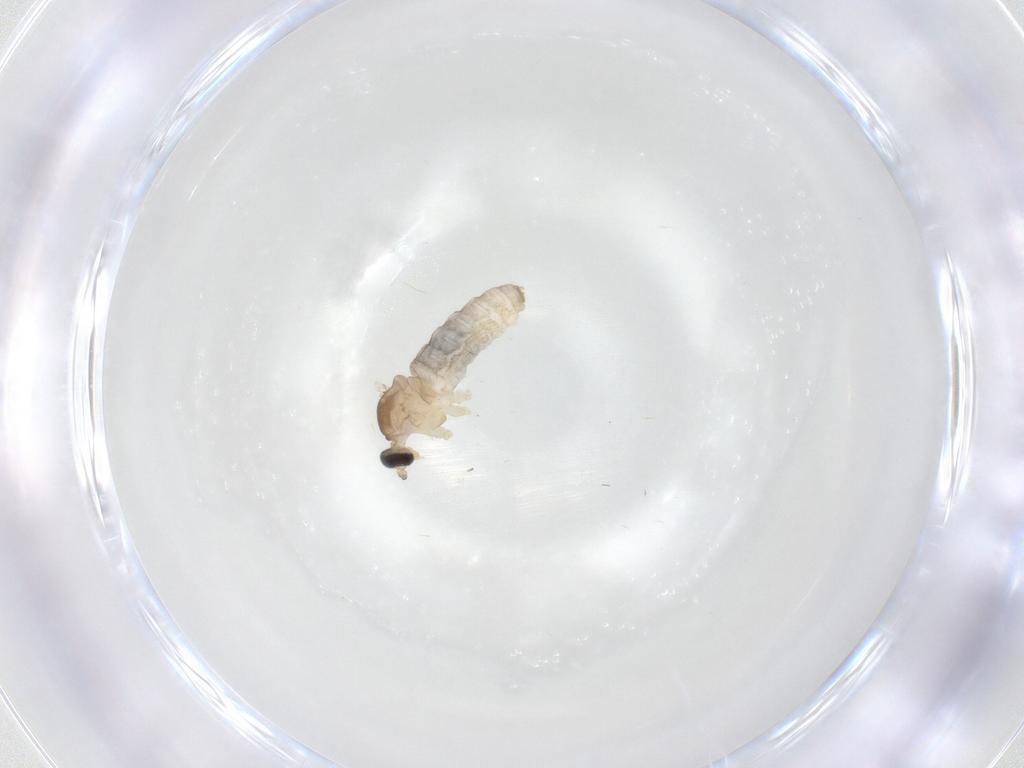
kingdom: Animalia
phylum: Arthropoda
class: Insecta
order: Diptera
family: Cecidomyiidae
